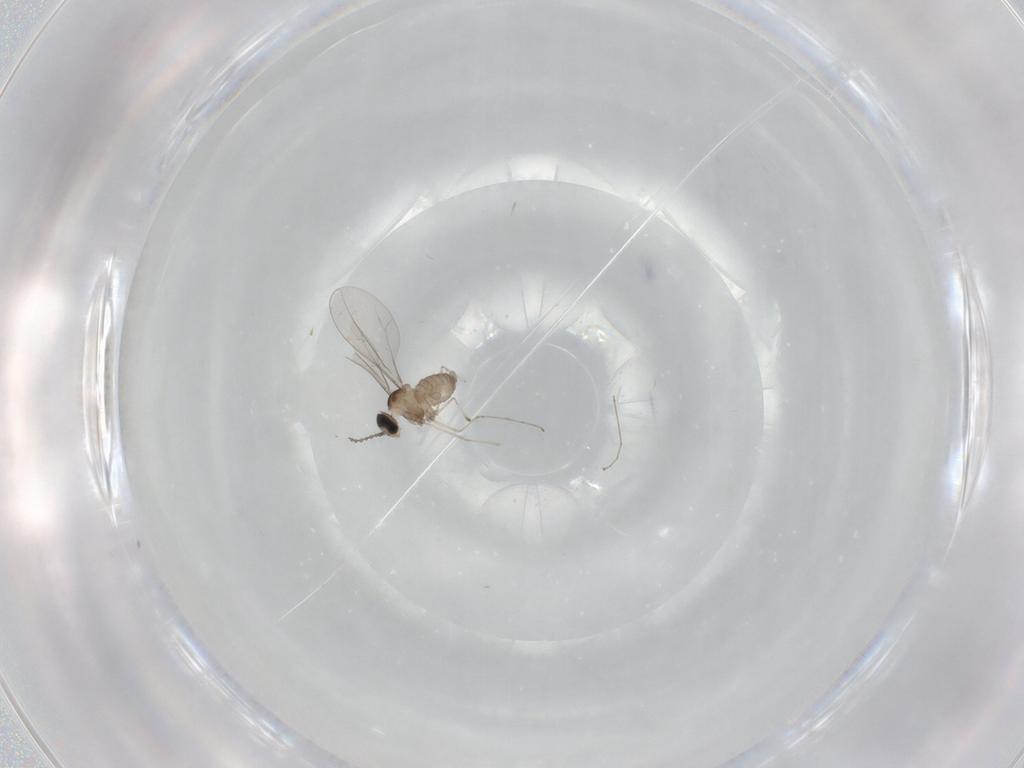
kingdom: Animalia
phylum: Arthropoda
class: Insecta
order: Diptera
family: Cecidomyiidae
